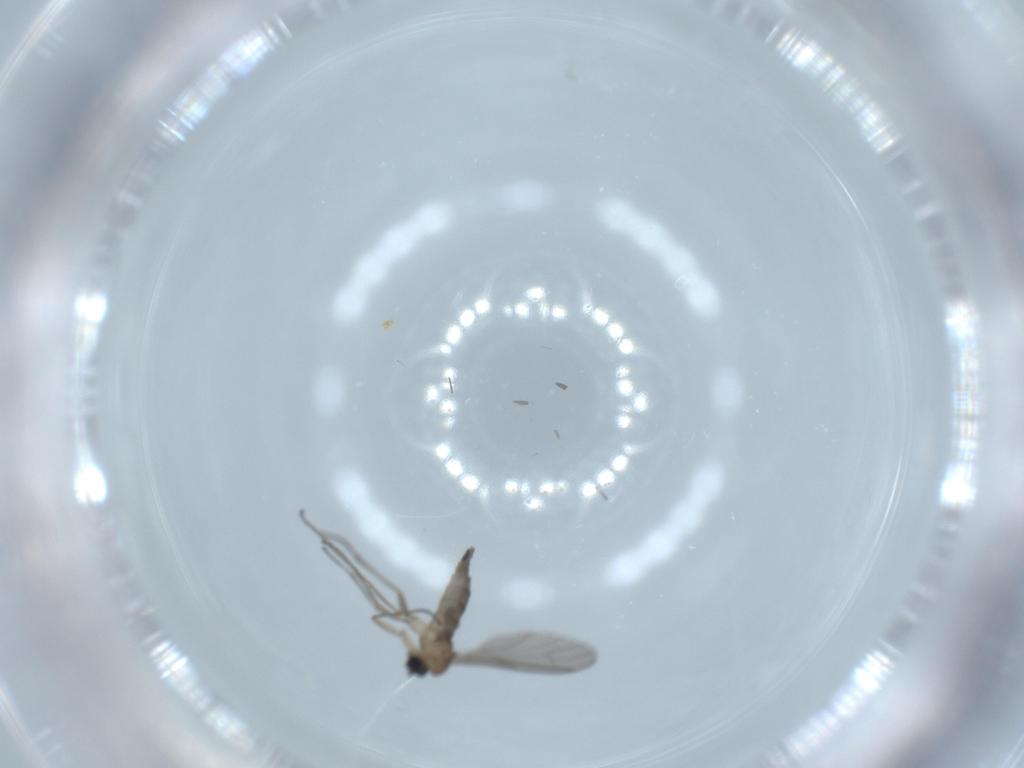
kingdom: Animalia
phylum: Arthropoda
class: Insecta
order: Diptera
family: Sciaridae
